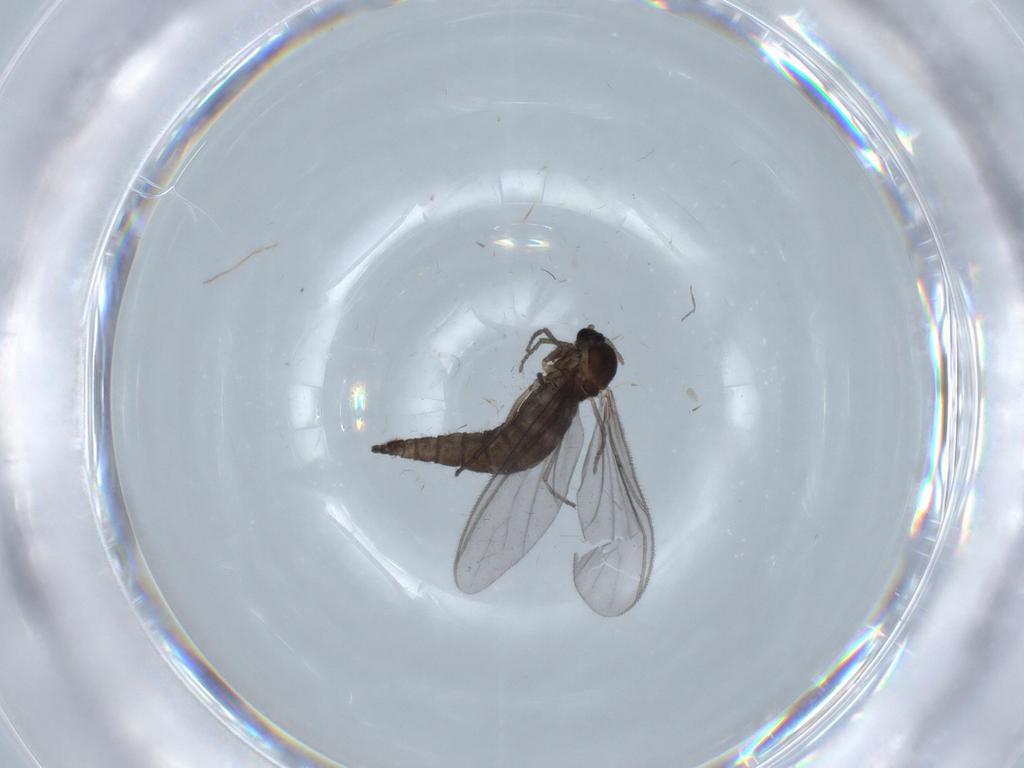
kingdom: Animalia
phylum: Arthropoda
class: Insecta
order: Diptera
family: Sciaridae
